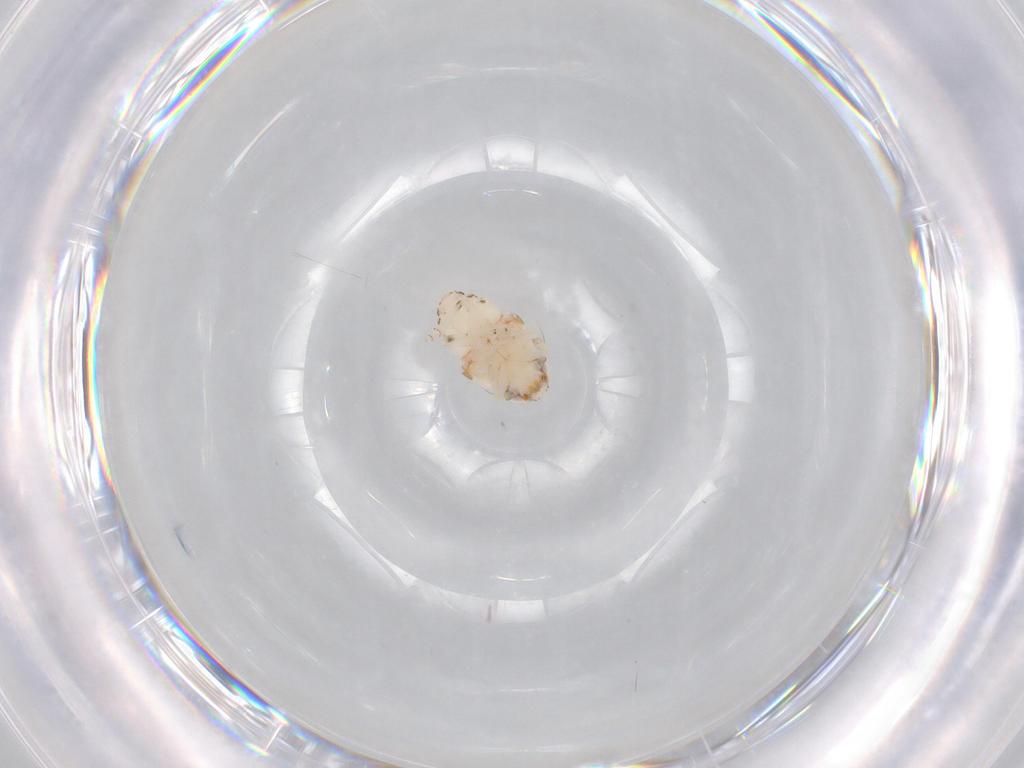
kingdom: Animalia
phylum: Arthropoda
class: Insecta
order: Hemiptera
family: Nogodinidae
